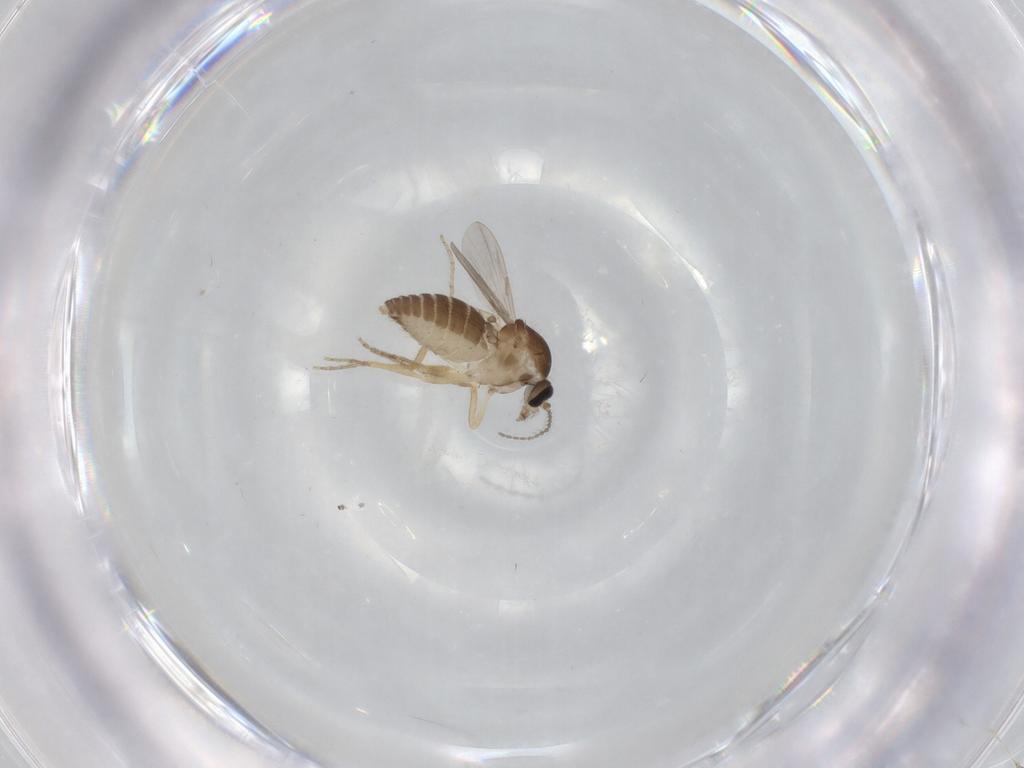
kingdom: Animalia
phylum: Arthropoda
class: Insecta
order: Diptera
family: Ceratopogonidae
